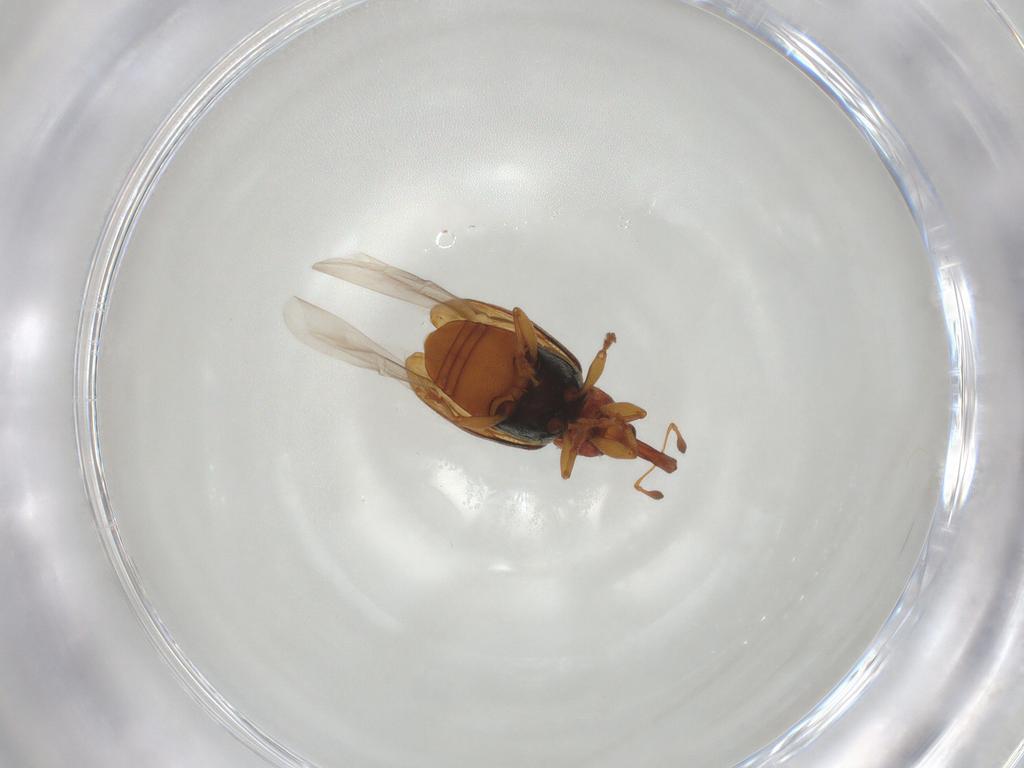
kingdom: Animalia
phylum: Arthropoda
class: Insecta
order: Coleoptera
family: Curculionidae
